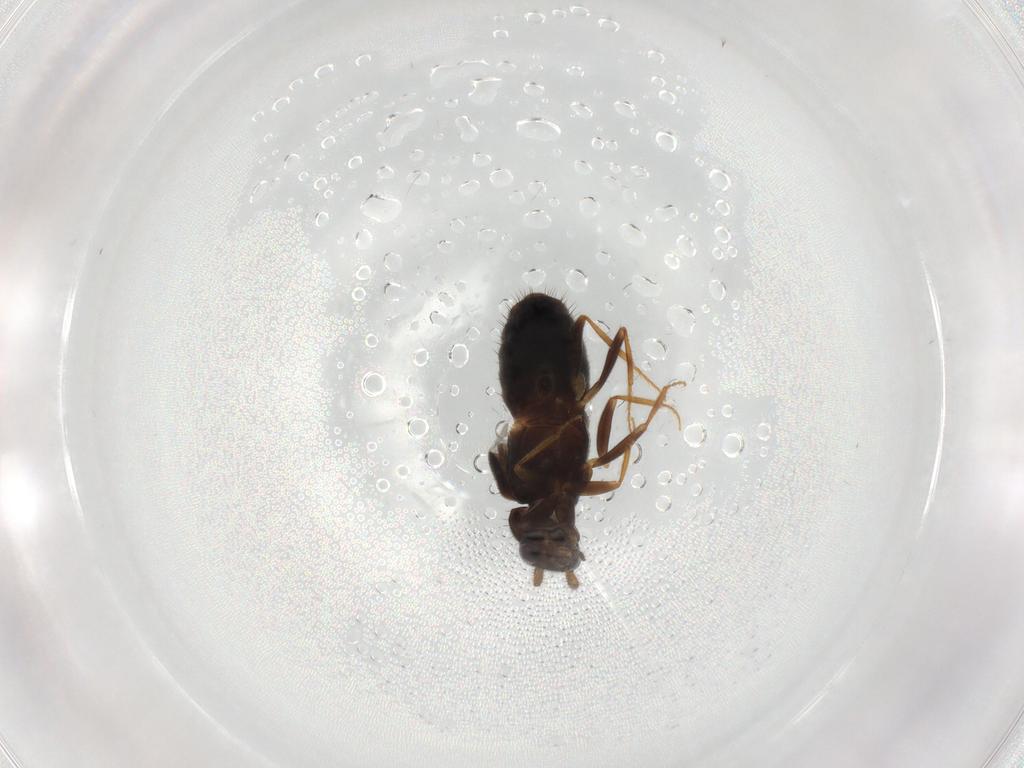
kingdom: Animalia
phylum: Arthropoda
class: Insecta
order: Coleoptera
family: Staphylinidae
